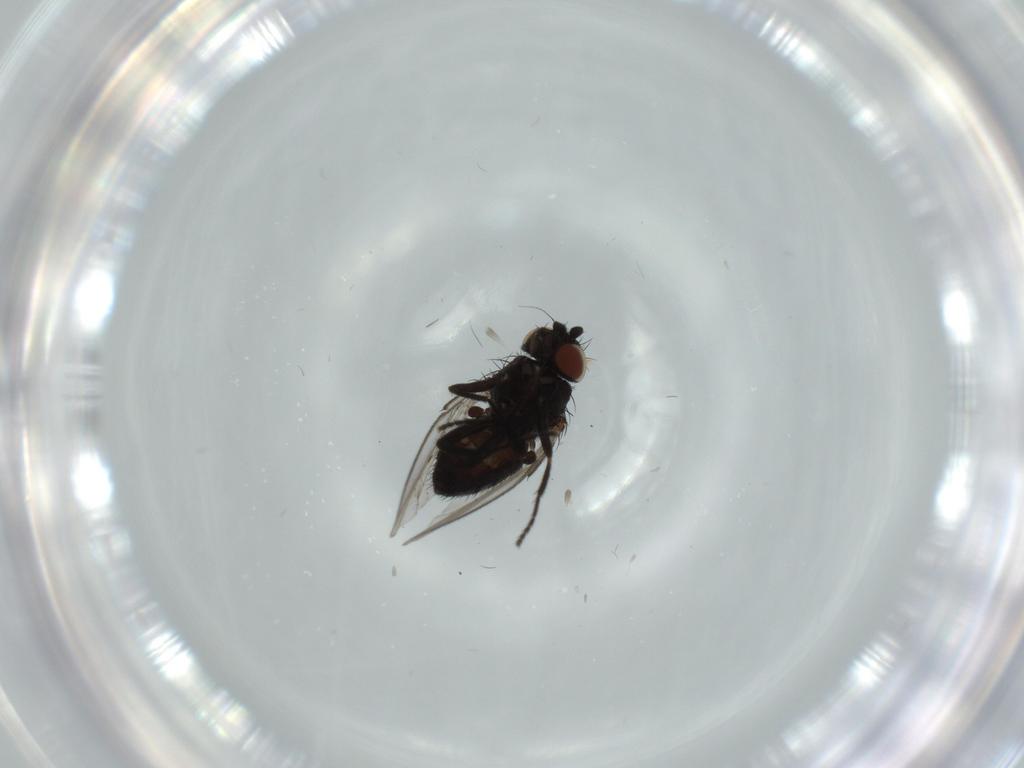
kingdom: Animalia
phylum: Arthropoda
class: Insecta
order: Diptera
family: Milichiidae
